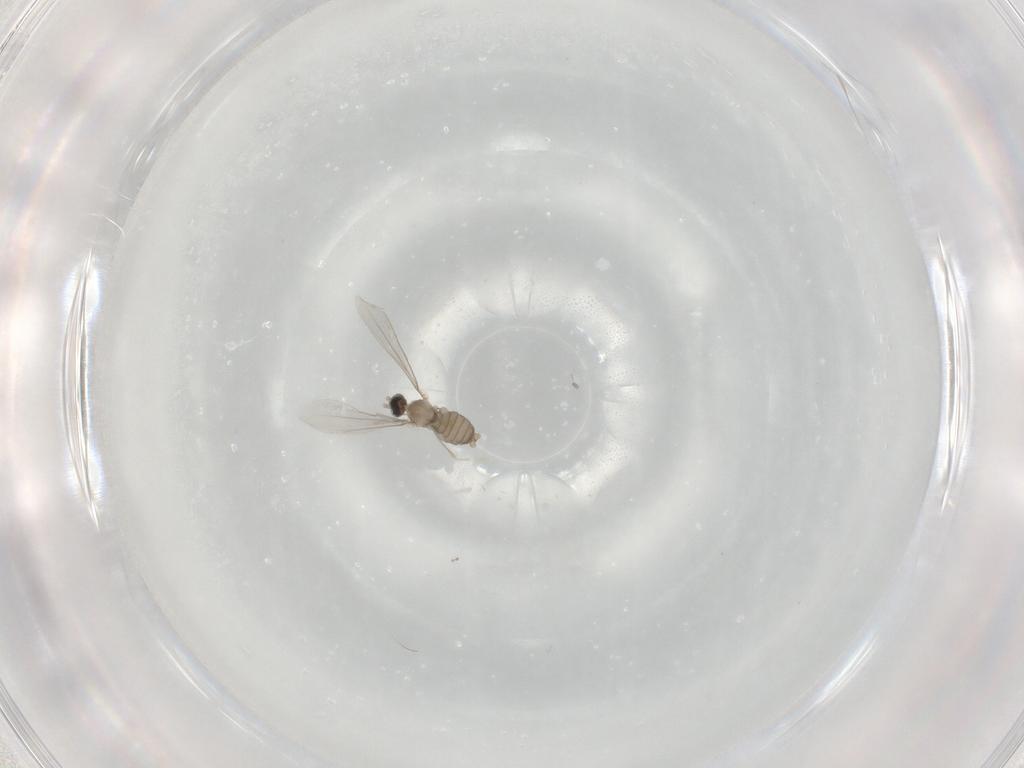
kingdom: Animalia
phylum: Arthropoda
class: Insecta
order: Diptera
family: Cecidomyiidae
